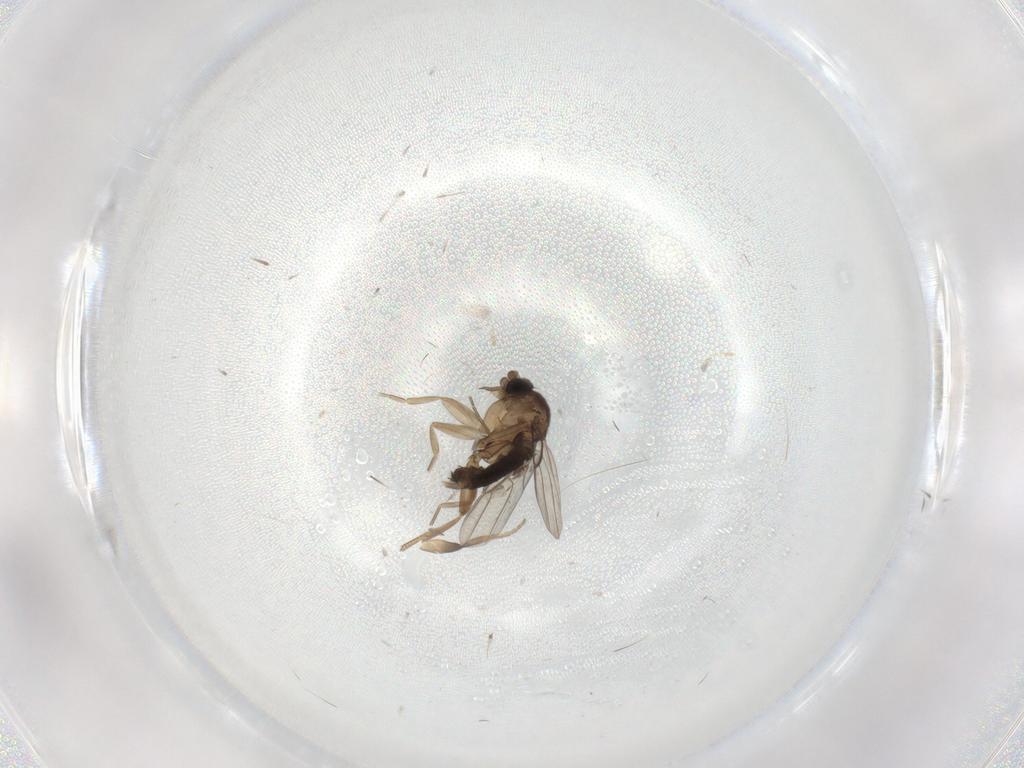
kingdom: Animalia
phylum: Arthropoda
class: Insecta
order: Diptera
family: Phoridae
